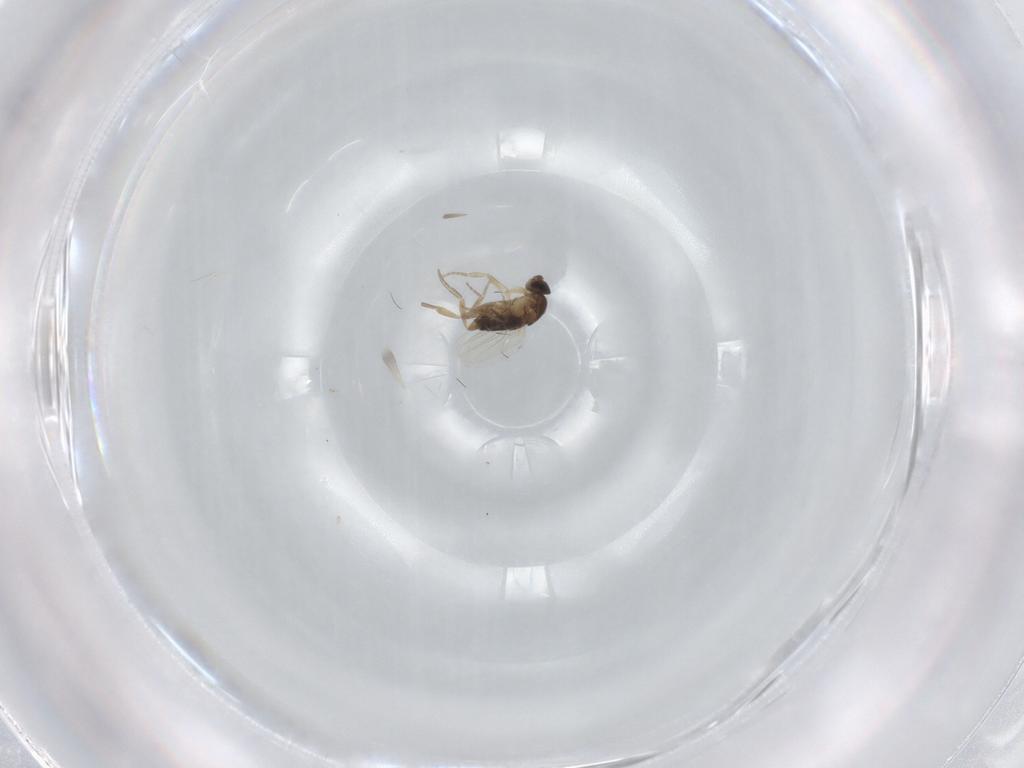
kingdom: Animalia
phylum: Arthropoda
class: Insecta
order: Diptera
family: Phoridae
